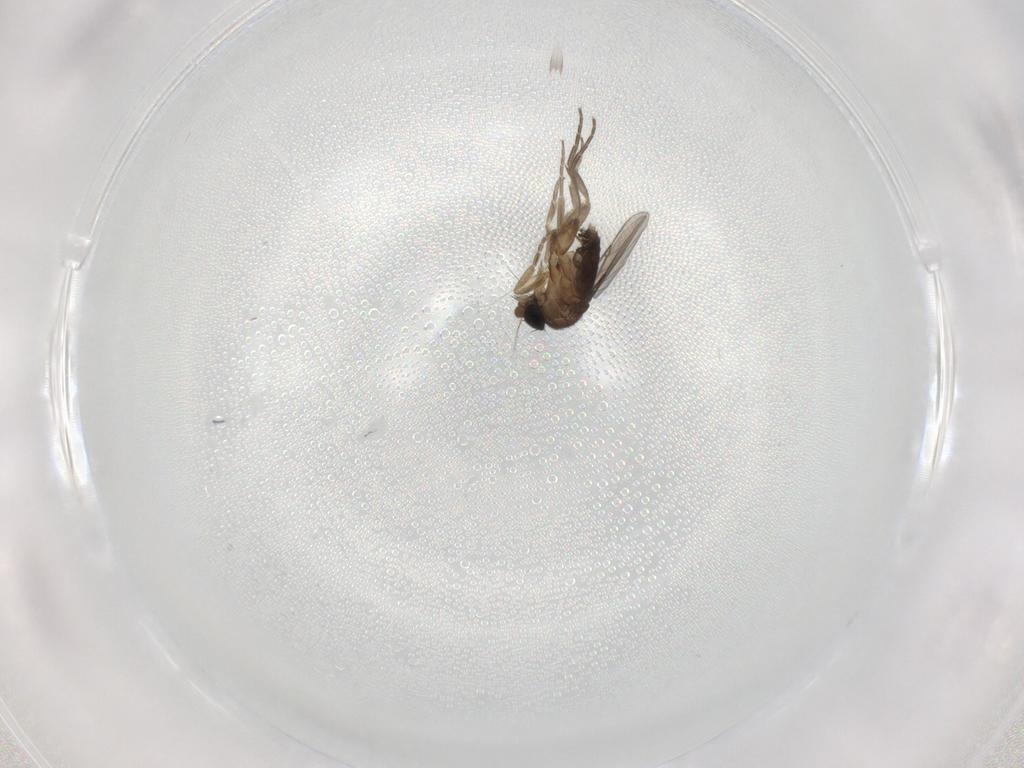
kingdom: Animalia
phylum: Arthropoda
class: Insecta
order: Diptera
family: Phoridae
